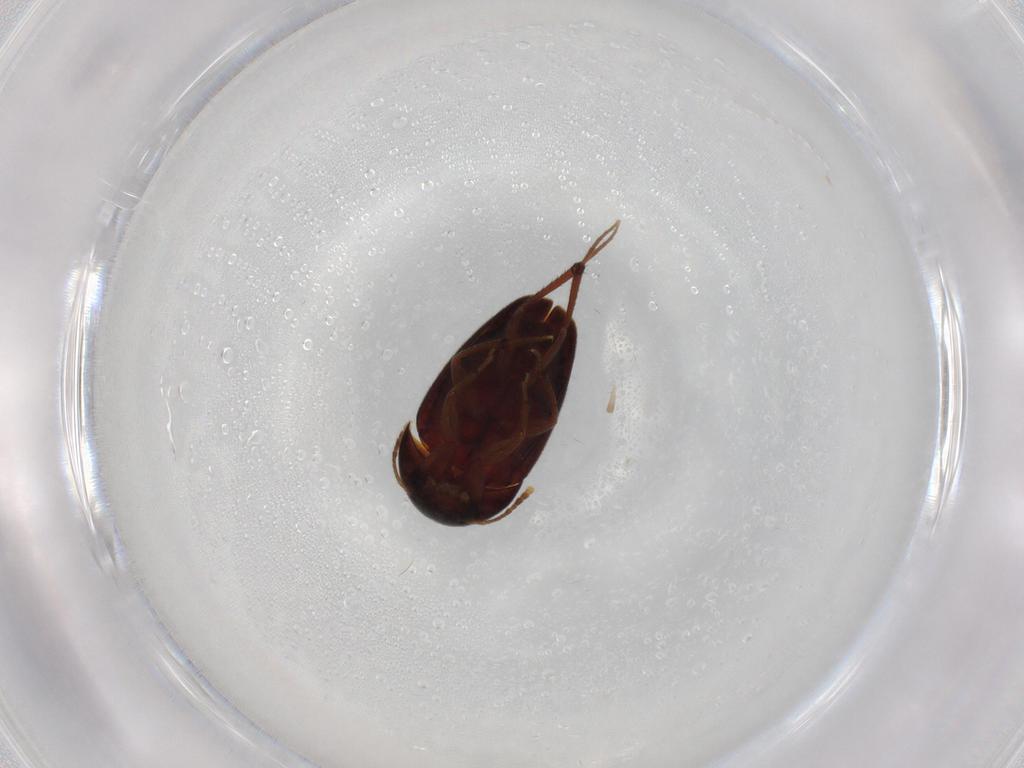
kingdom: Animalia
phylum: Arthropoda
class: Insecta
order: Coleoptera
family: Leiodidae
